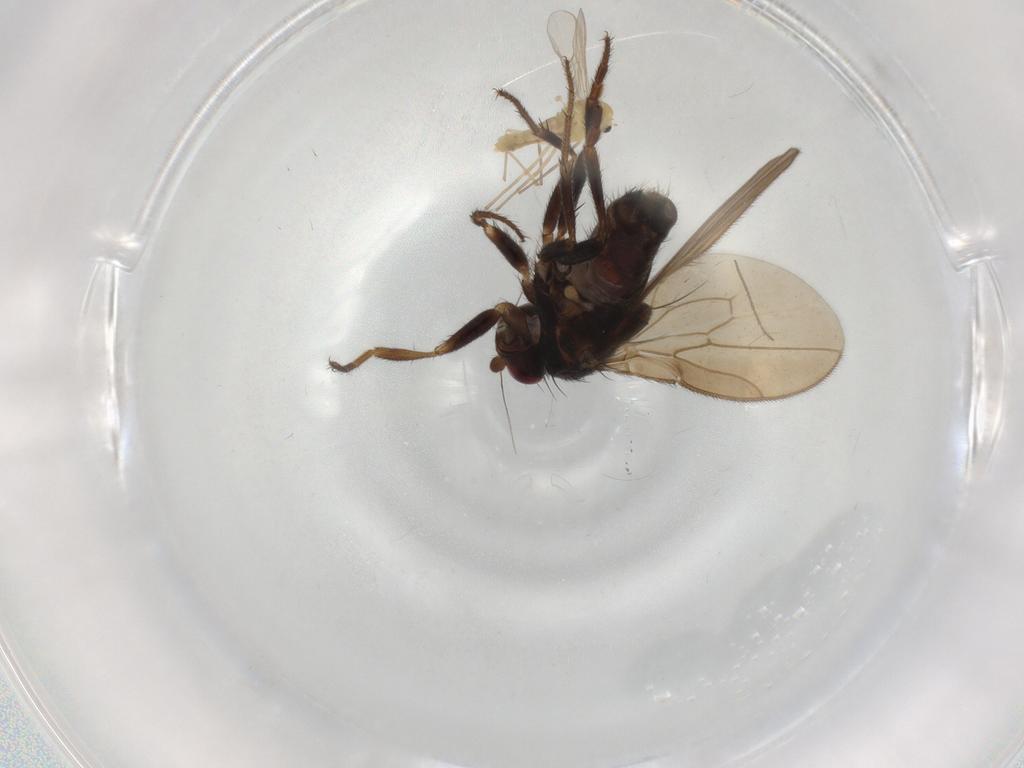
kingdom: Animalia
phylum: Arthropoda
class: Insecta
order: Diptera
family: Sphaeroceridae
